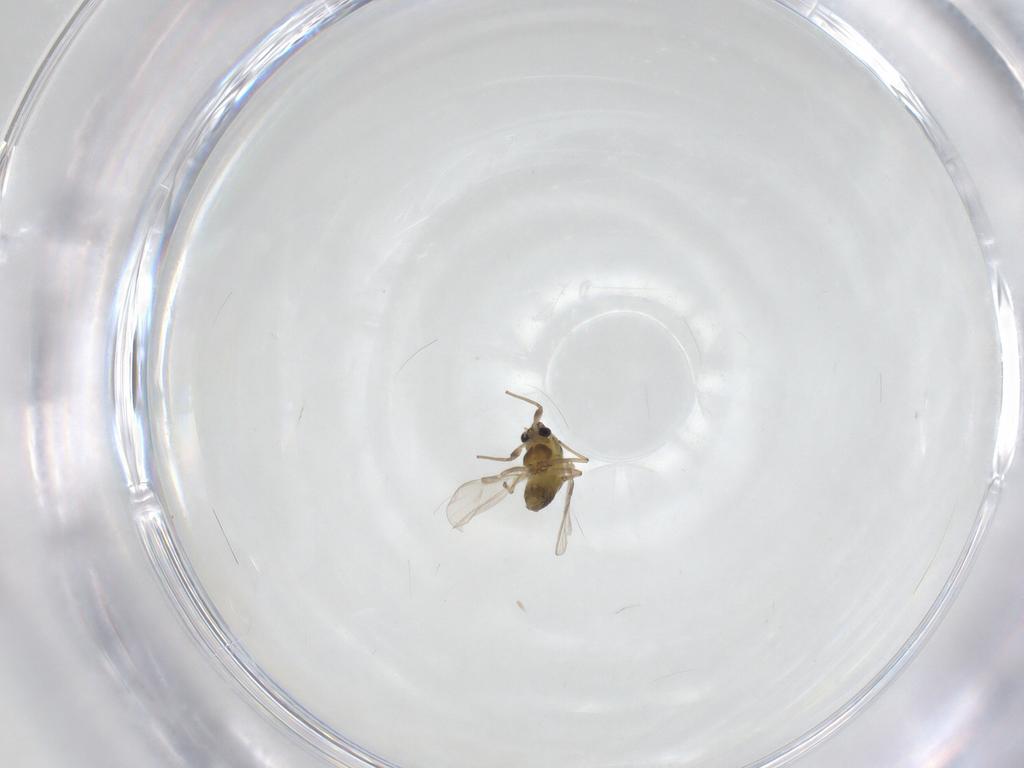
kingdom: Animalia
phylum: Arthropoda
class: Insecta
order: Diptera
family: Chironomidae
